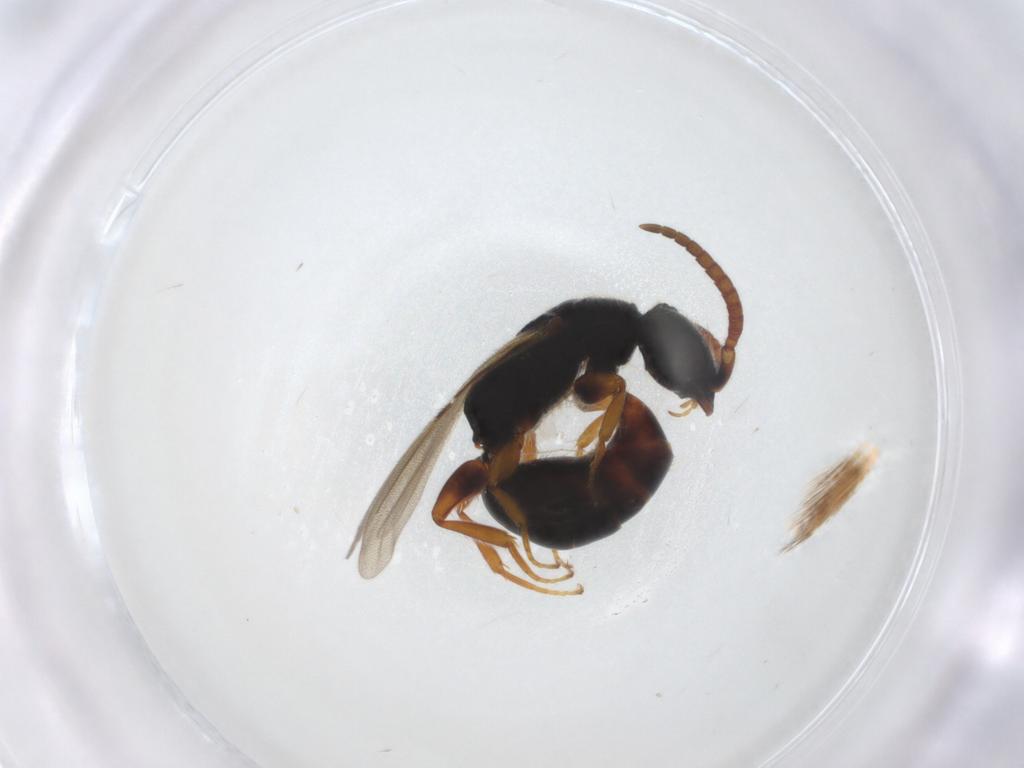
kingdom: Animalia
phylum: Arthropoda
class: Insecta
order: Hymenoptera
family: Bethylidae
